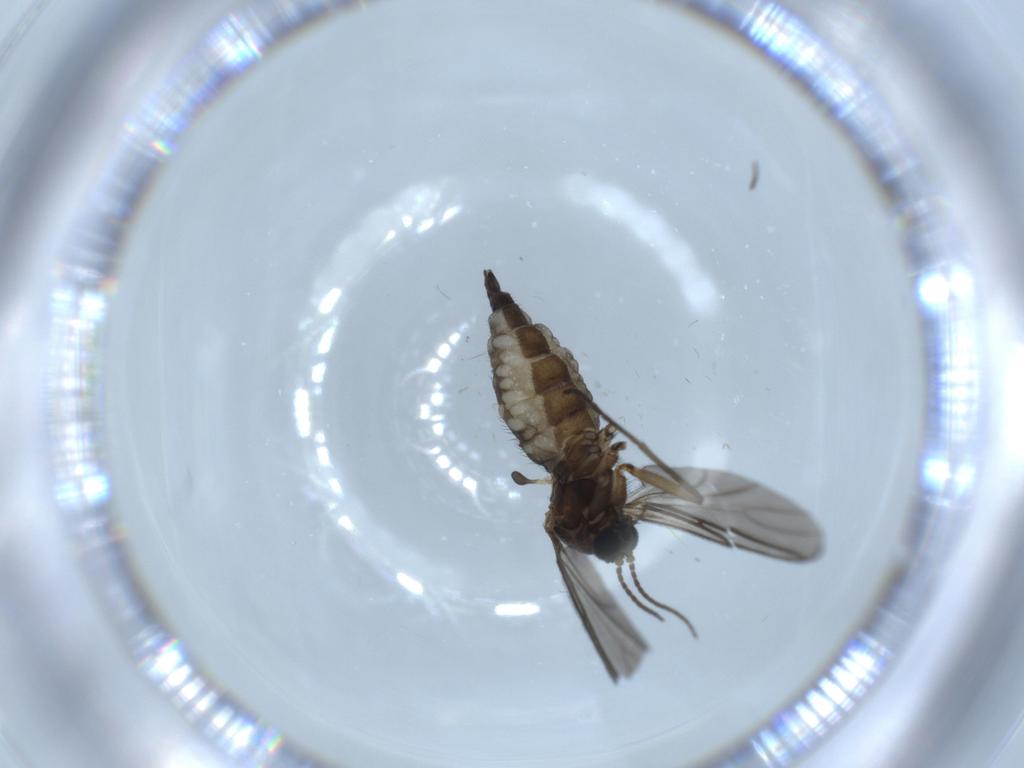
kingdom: Animalia
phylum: Arthropoda
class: Insecta
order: Diptera
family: Sciaridae
